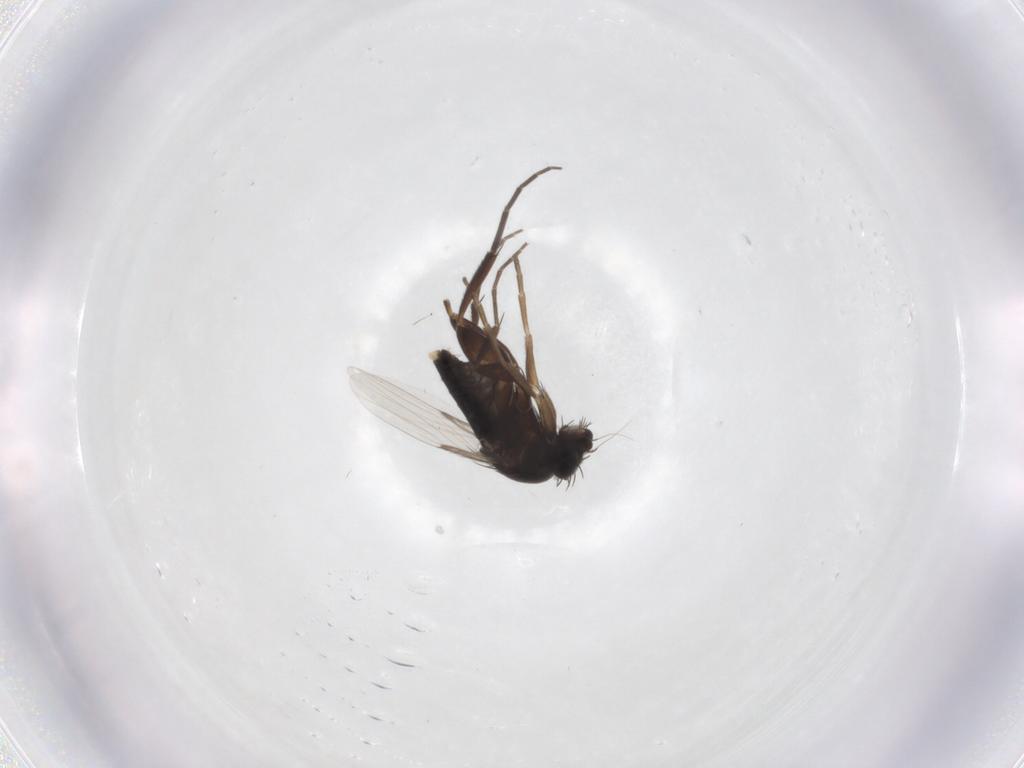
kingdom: Animalia
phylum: Arthropoda
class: Insecta
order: Diptera
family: Phoridae
